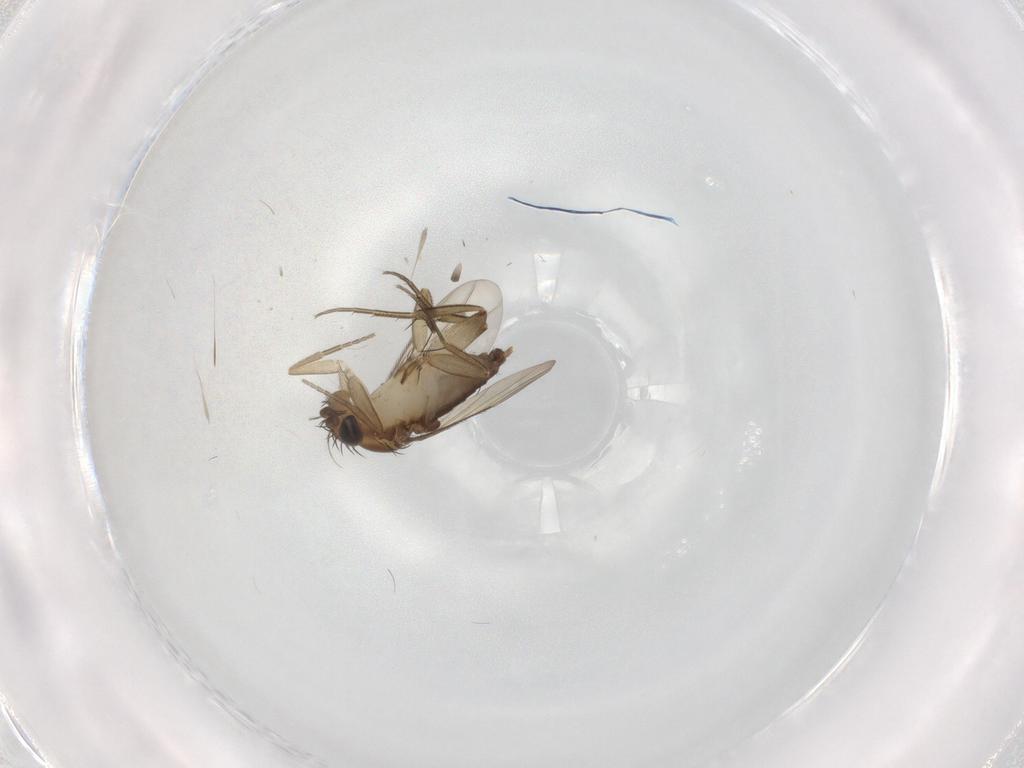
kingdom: Animalia
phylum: Arthropoda
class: Insecta
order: Diptera
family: Phoridae
